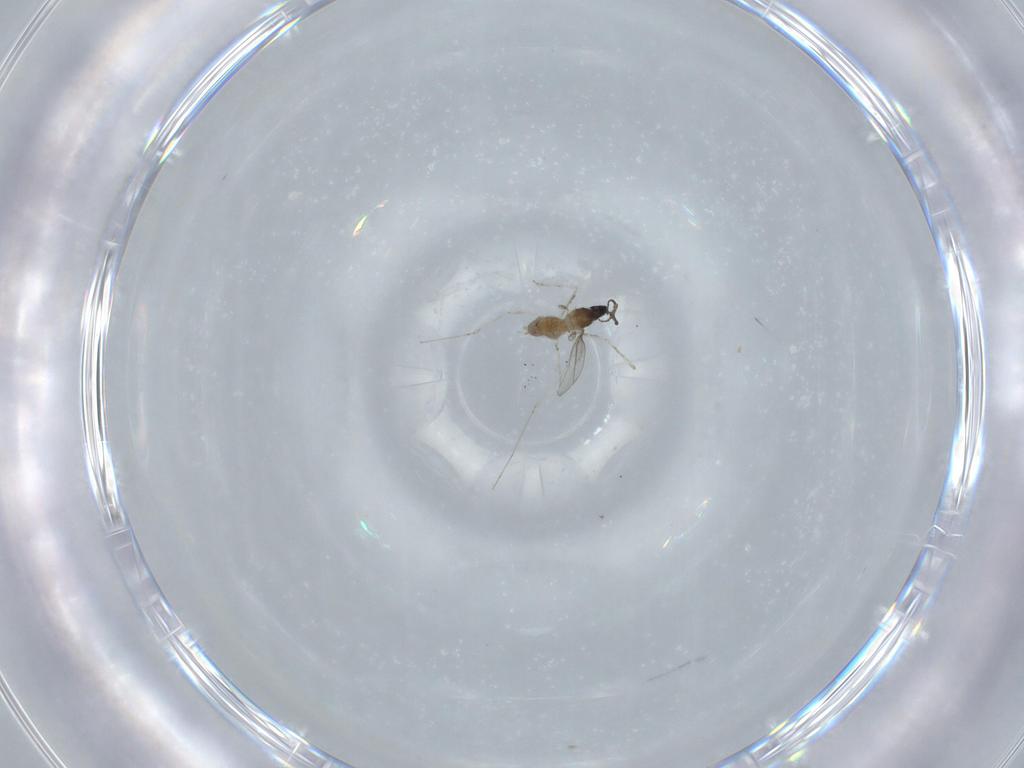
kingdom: Animalia
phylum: Arthropoda
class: Insecta
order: Diptera
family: Cecidomyiidae
